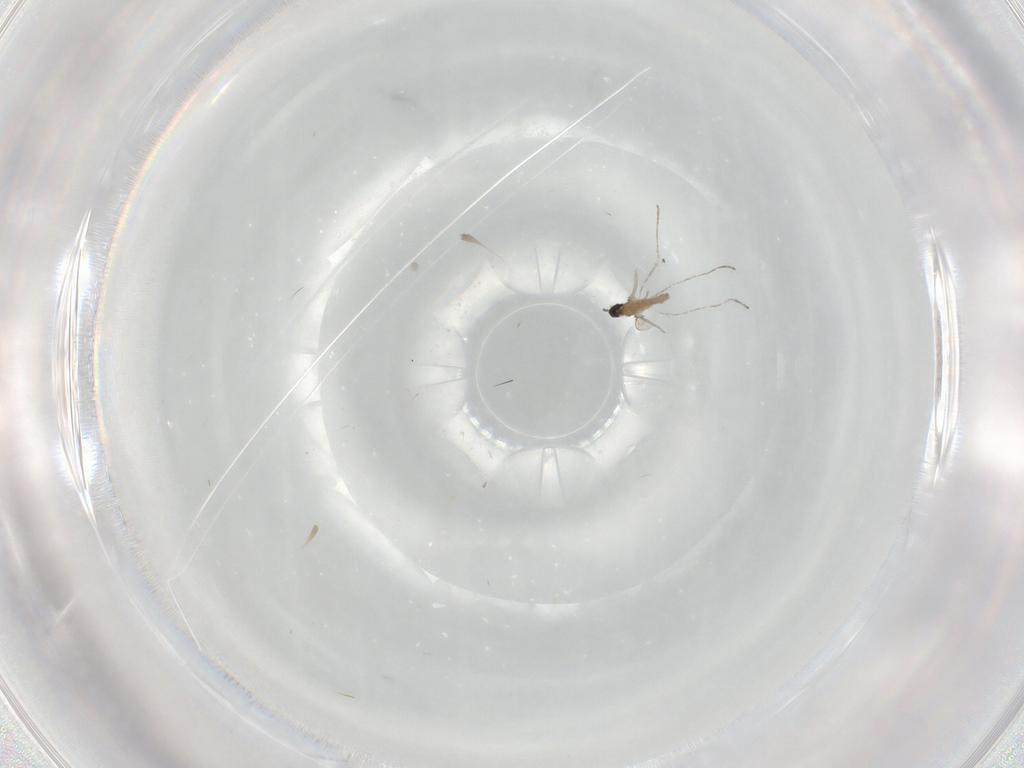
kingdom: Animalia
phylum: Arthropoda
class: Insecta
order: Diptera
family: Cecidomyiidae
